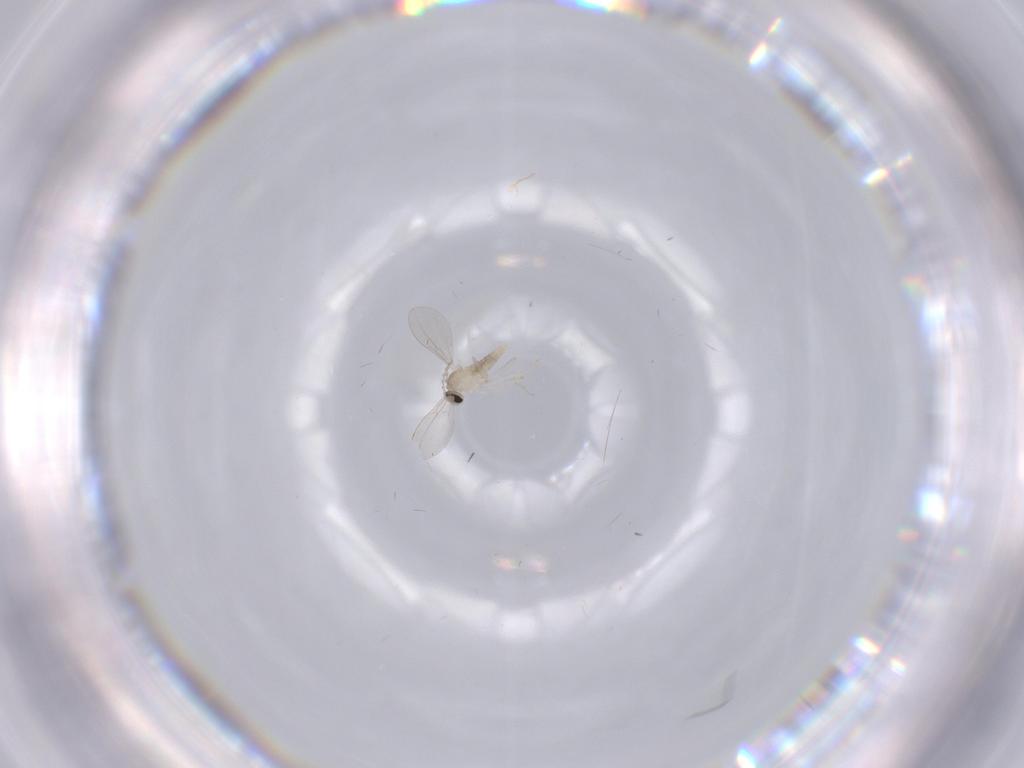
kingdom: Animalia
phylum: Arthropoda
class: Insecta
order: Diptera
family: Cecidomyiidae
